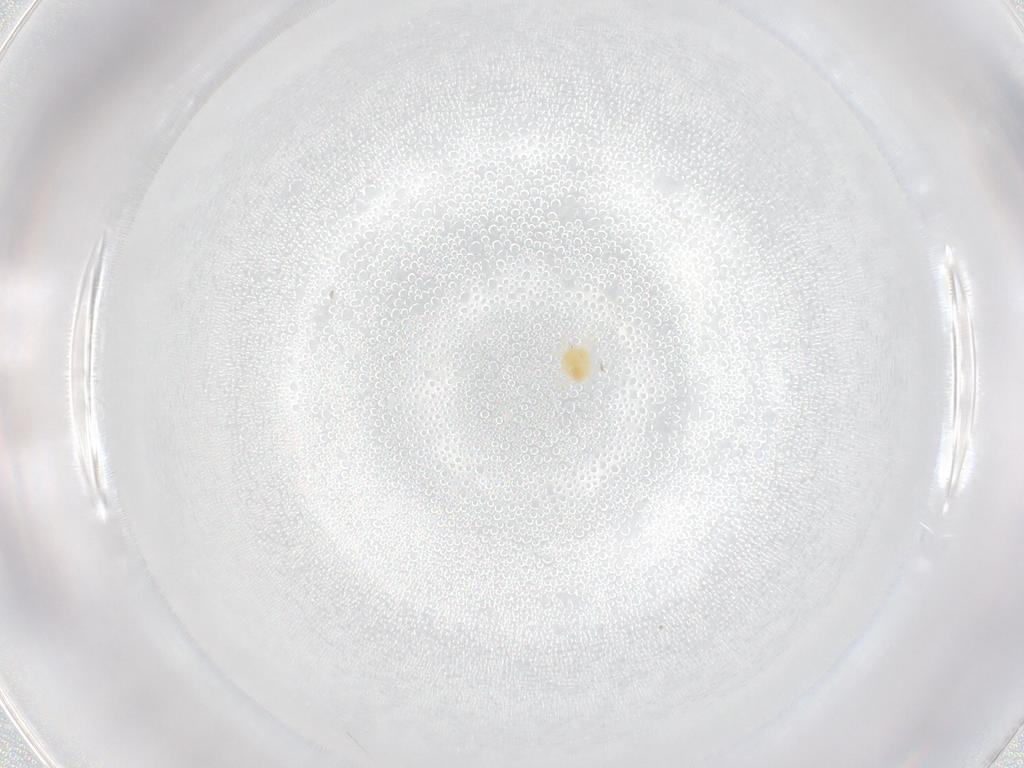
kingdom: Animalia
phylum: Arthropoda
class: Arachnida
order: Trombidiformes
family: Tetranychidae
